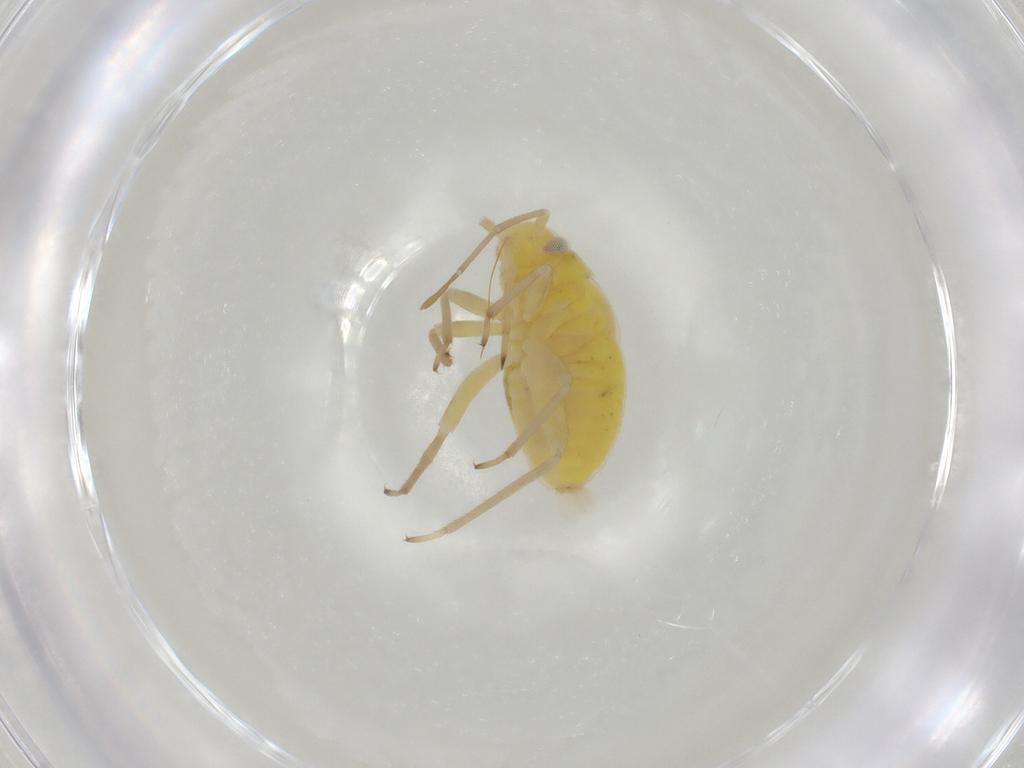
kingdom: Animalia
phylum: Arthropoda
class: Insecta
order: Hemiptera
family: Miridae
